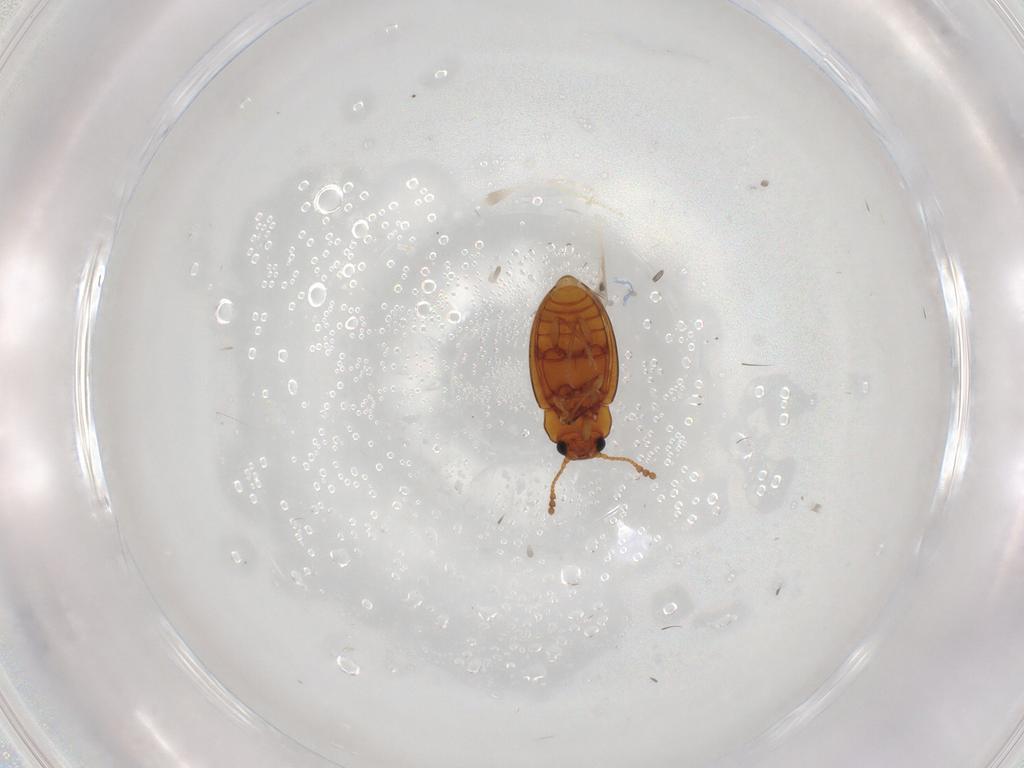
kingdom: Animalia
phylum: Arthropoda
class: Insecta
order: Coleoptera
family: Erotylidae
